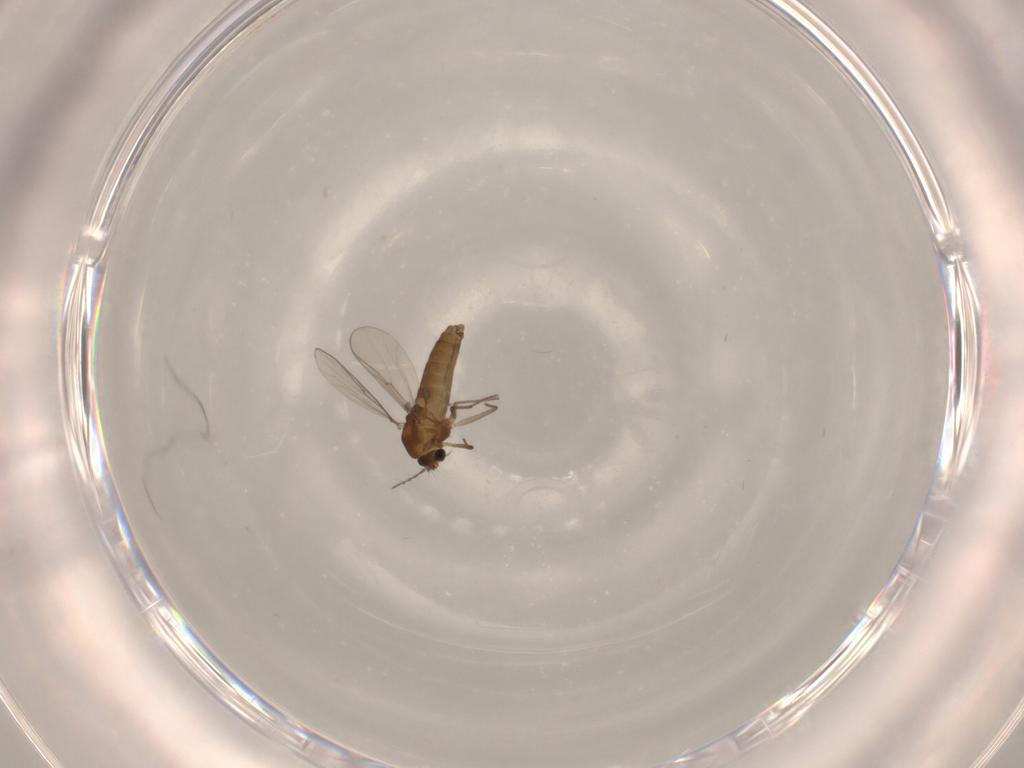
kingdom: Animalia
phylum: Arthropoda
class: Insecta
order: Diptera
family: Chironomidae
